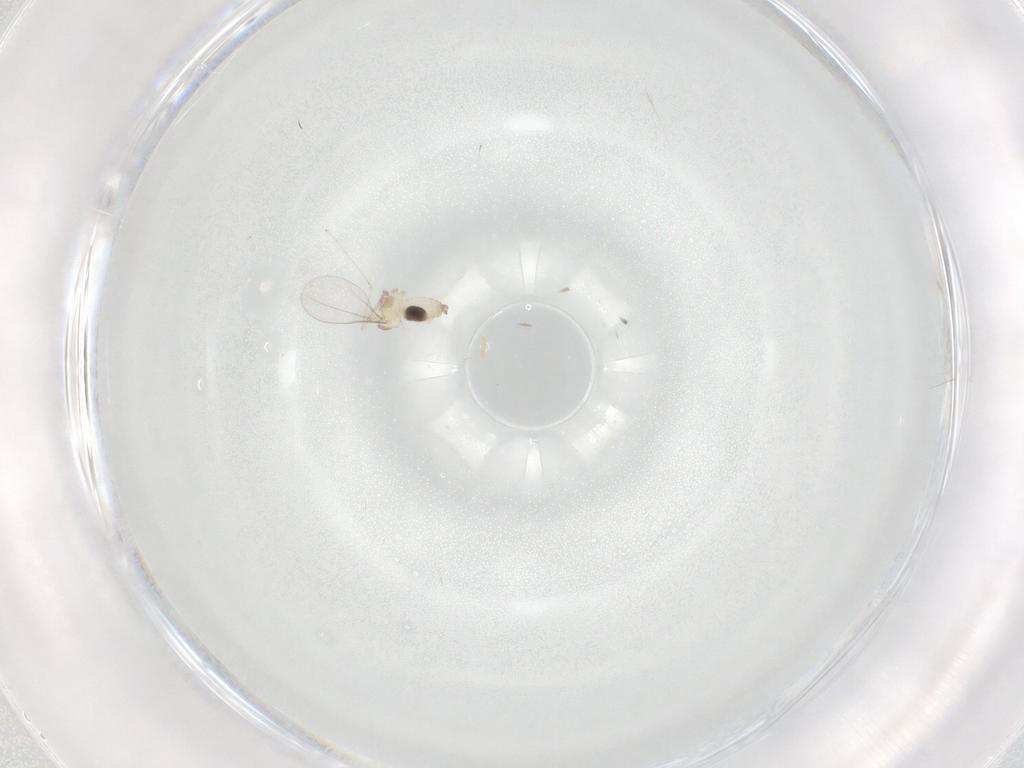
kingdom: Animalia
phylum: Arthropoda
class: Insecta
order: Diptera
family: Cecidomyiidae
